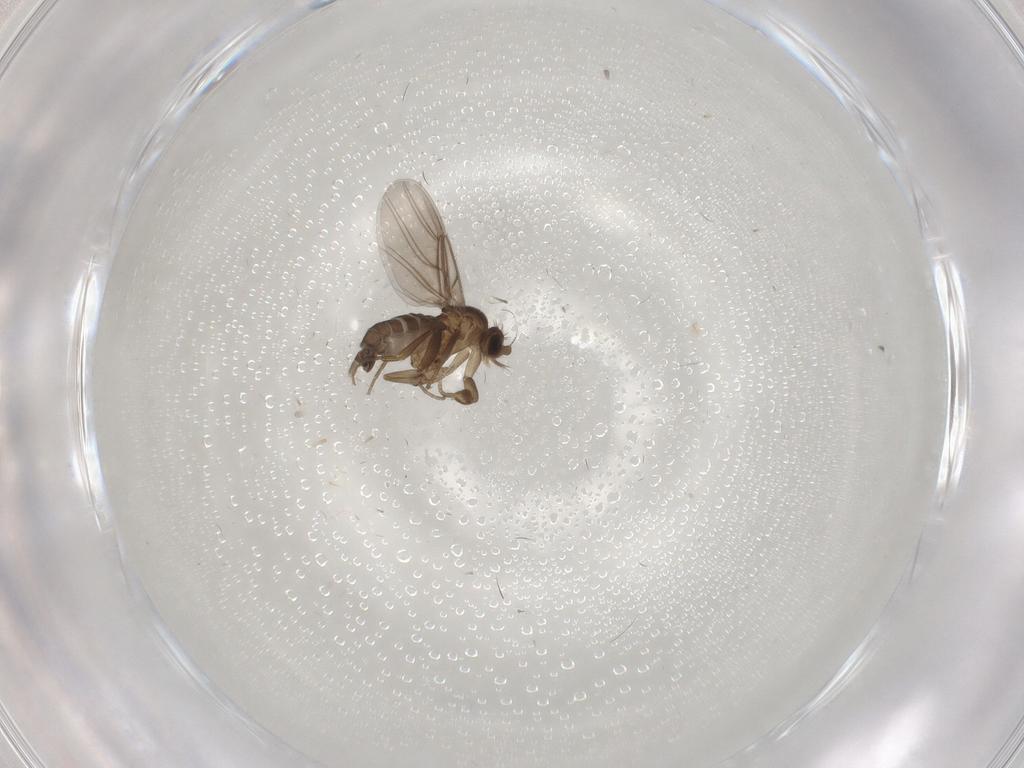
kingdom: Animalia
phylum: Arthropoda
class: Insecta
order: Diptera
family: Phoridae
